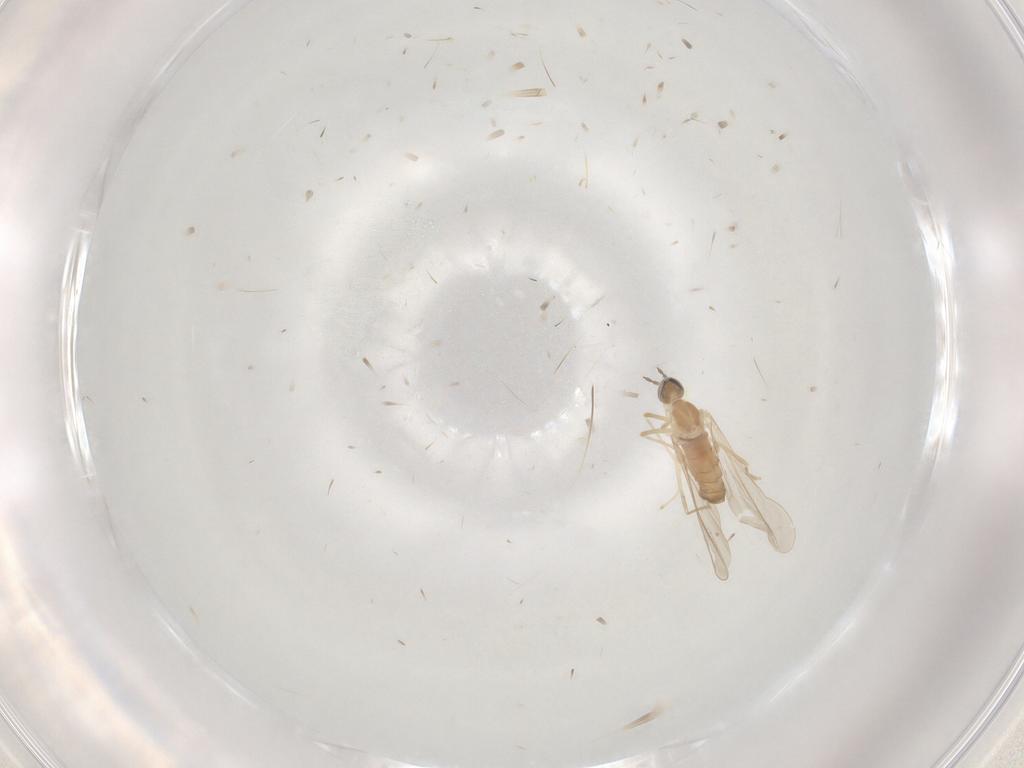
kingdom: Animalia
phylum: Arthropoda
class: Insecta
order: Diptera
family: Cecidomyiidae
